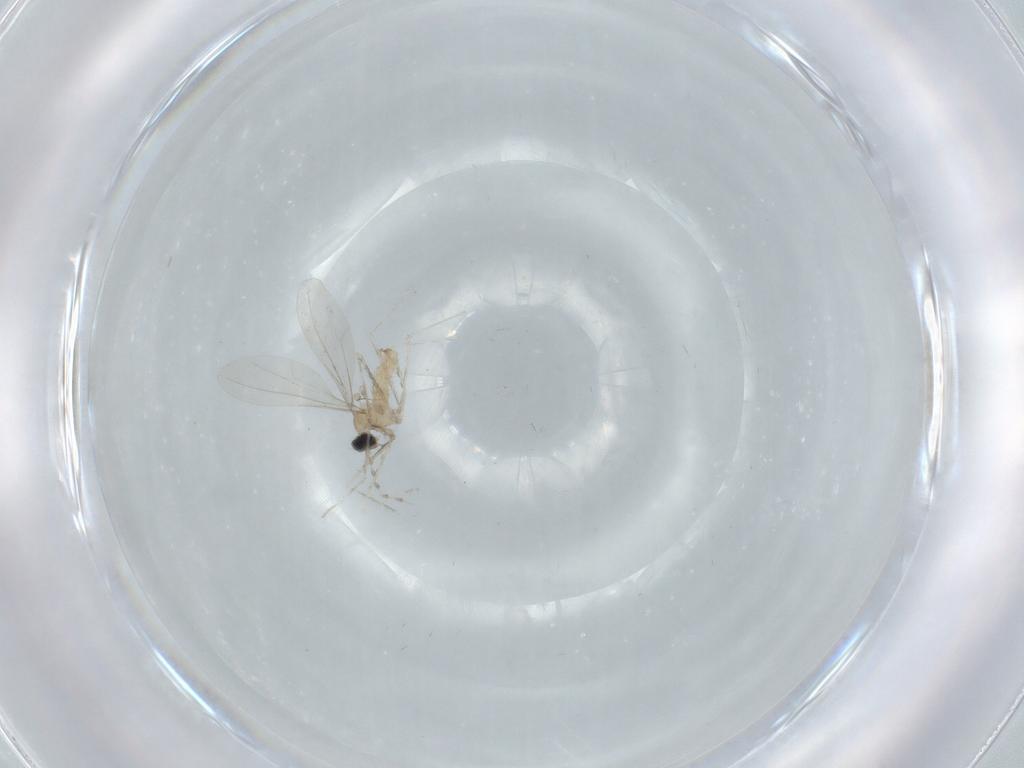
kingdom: Animalia
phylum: Arthropoda
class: Insecta
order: Diptera
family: Cecidomyiidae
